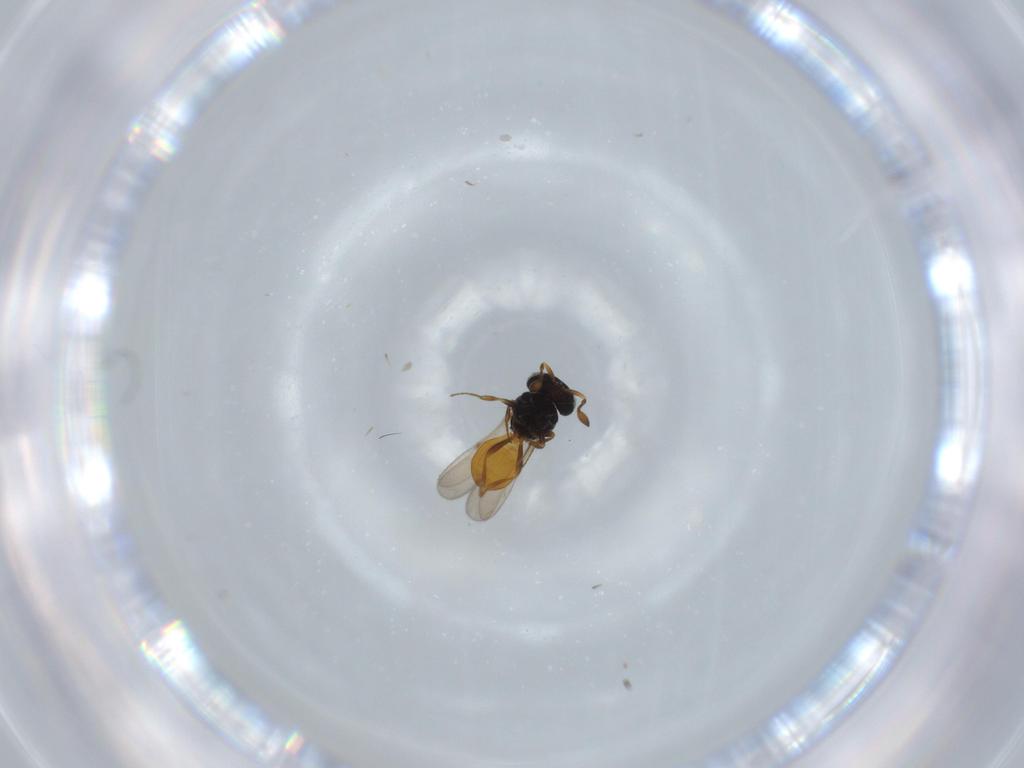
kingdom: Animalia
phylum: Arthropoda
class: Insecta
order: Hymenoptera
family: Scelionidae
